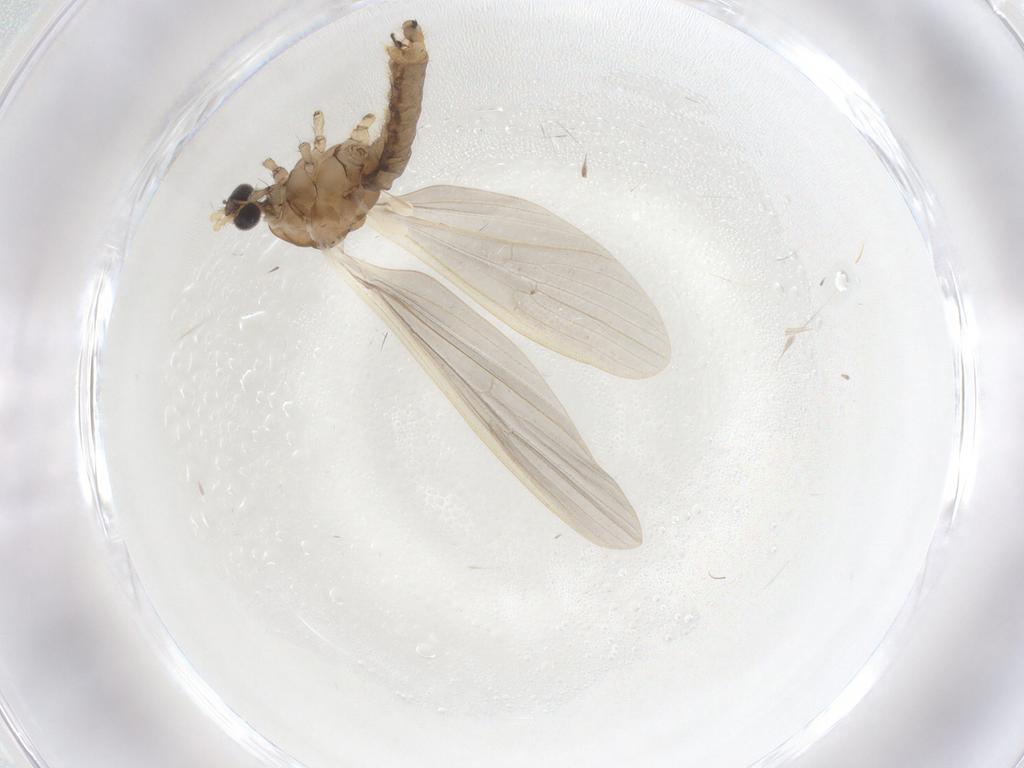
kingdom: Animalia
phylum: Arthropoda
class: Insecta
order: Diptera
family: Limoniidae
